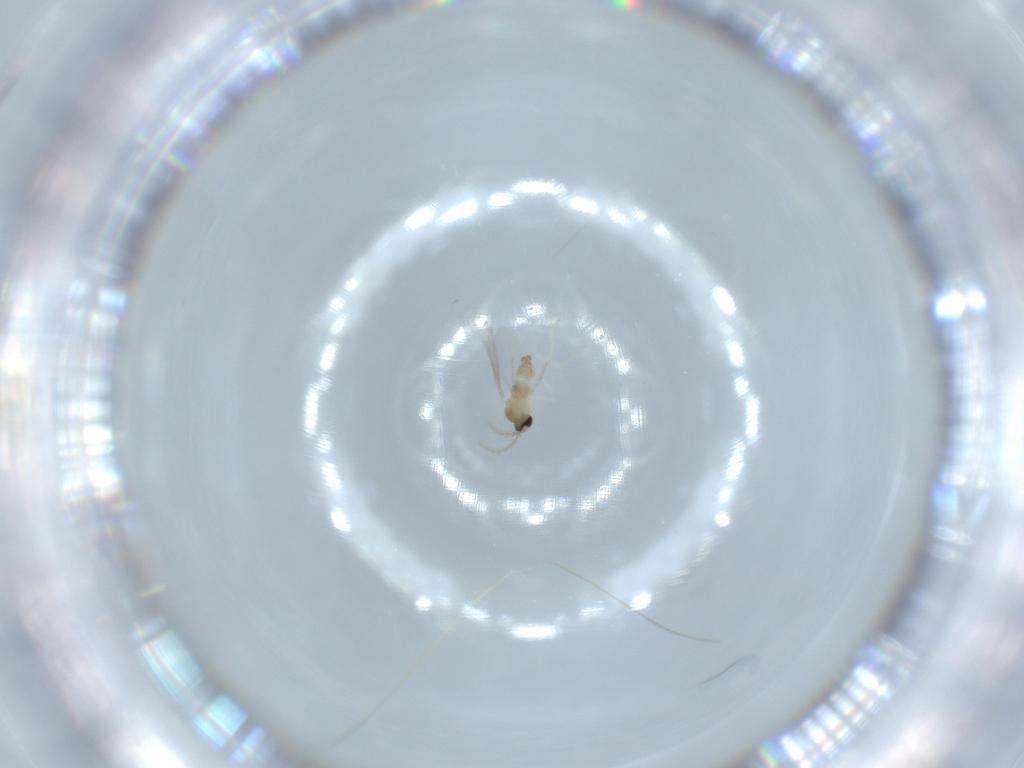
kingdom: Animalia
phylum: Arthropoda
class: Insecta
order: Diptera
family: Cecidomyiidae
